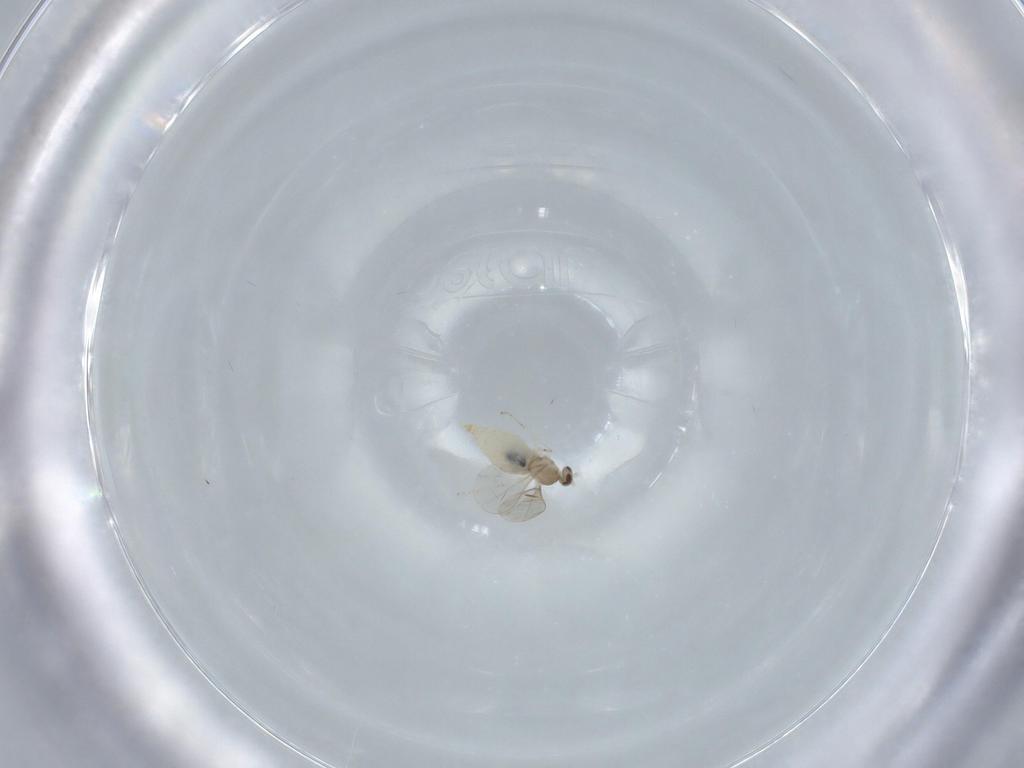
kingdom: Animalia
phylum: Arthropoda
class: Insecta
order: Diptera
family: Cecidomyiidae
